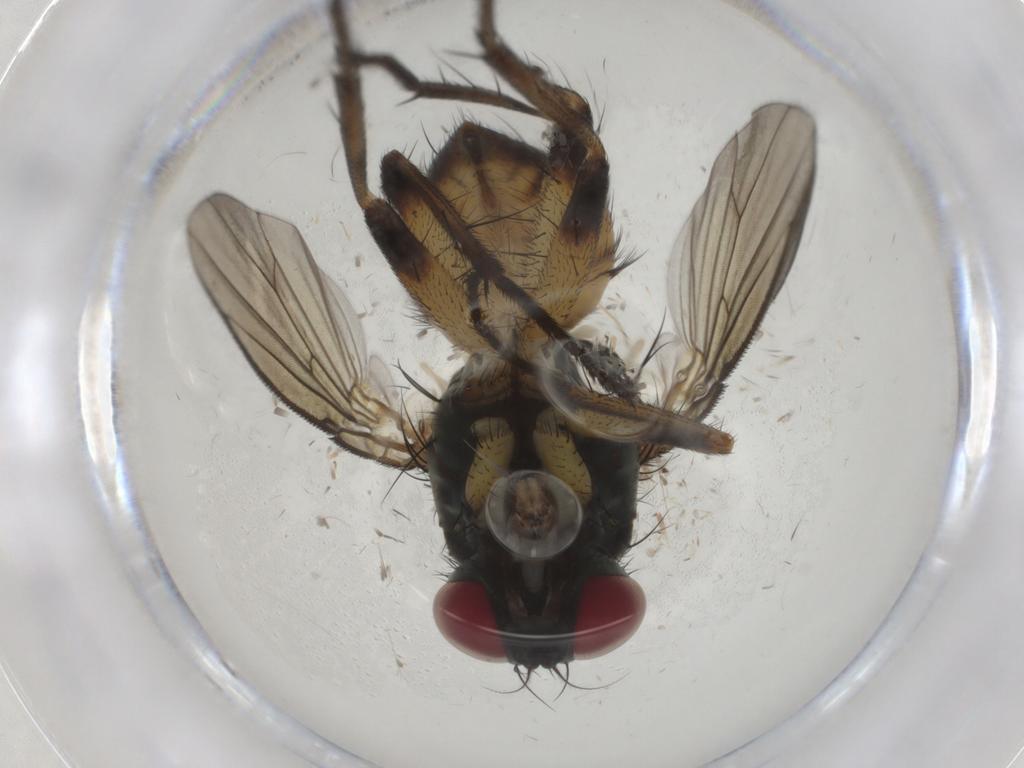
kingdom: Animalia
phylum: Arthropoda
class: Insecta
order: Diptera
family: Muscidae
